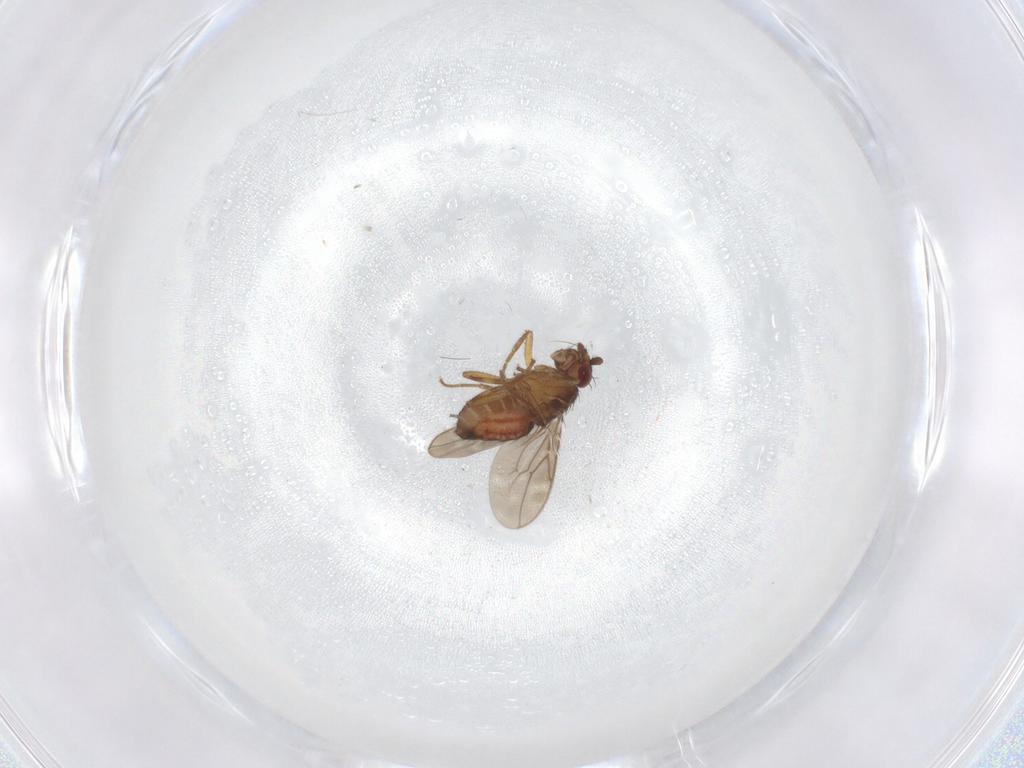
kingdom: Animalia
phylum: Arthropoda
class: Insecta
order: Diptera
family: Sphaeroceridae
